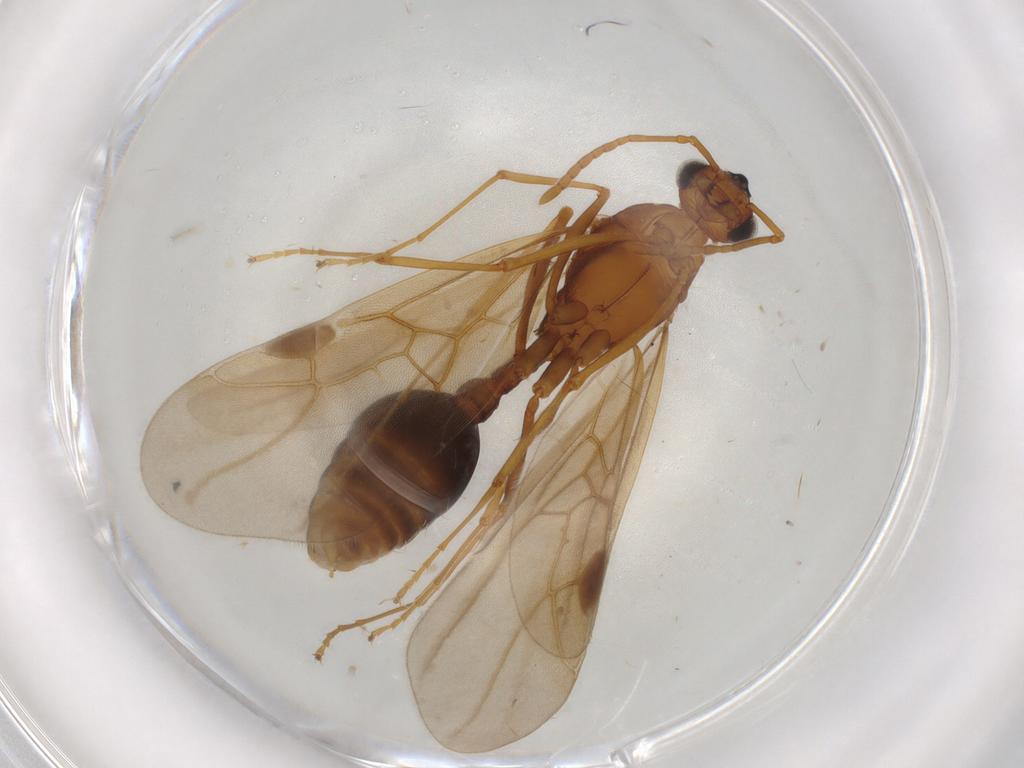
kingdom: Animalia
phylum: Arthropoda
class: Insecta
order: Hymenoptera
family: Formicidae
